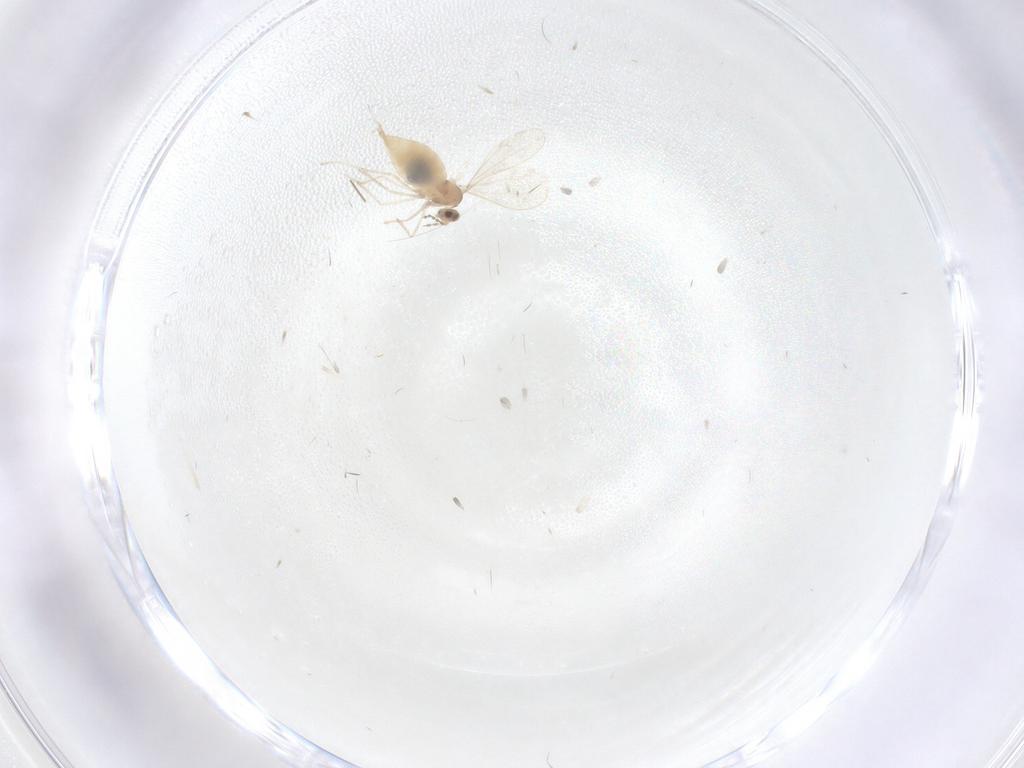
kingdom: Animalia
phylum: Arthropoda
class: Insecta
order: Diptera
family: Cecidomyiidae
